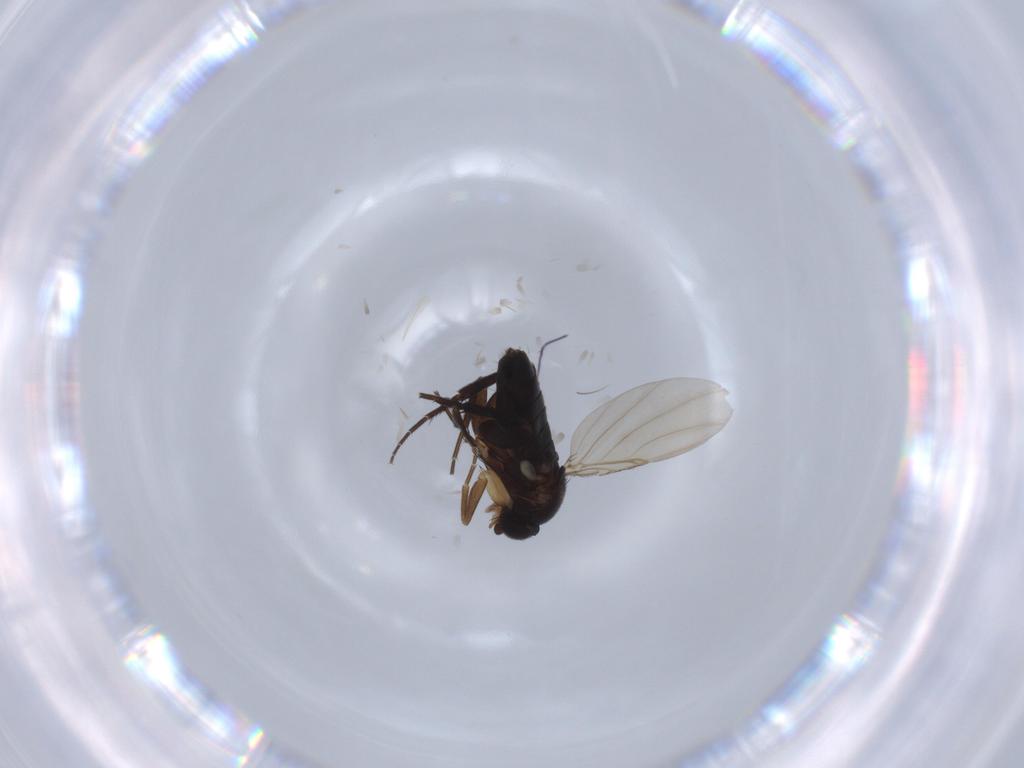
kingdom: Animalia
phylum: Arthropoda
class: Insecta
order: Diptera
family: Phoridae
